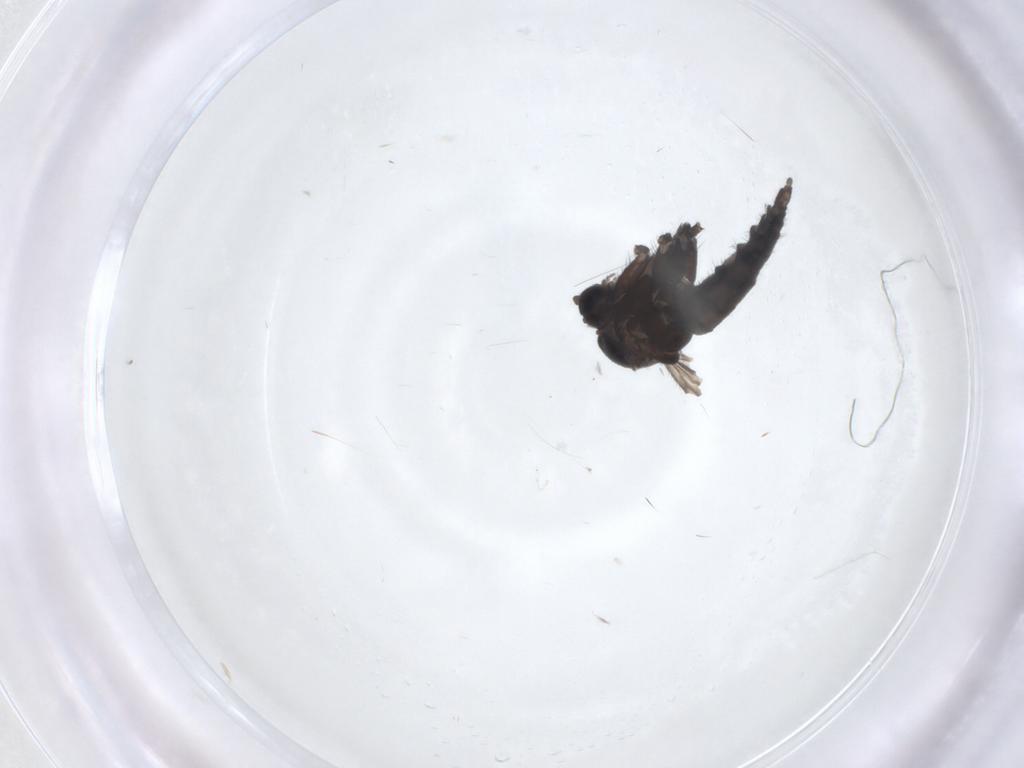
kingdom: Animalia
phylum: Arthropoda
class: Insecta
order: Diptera
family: Sciaridae
